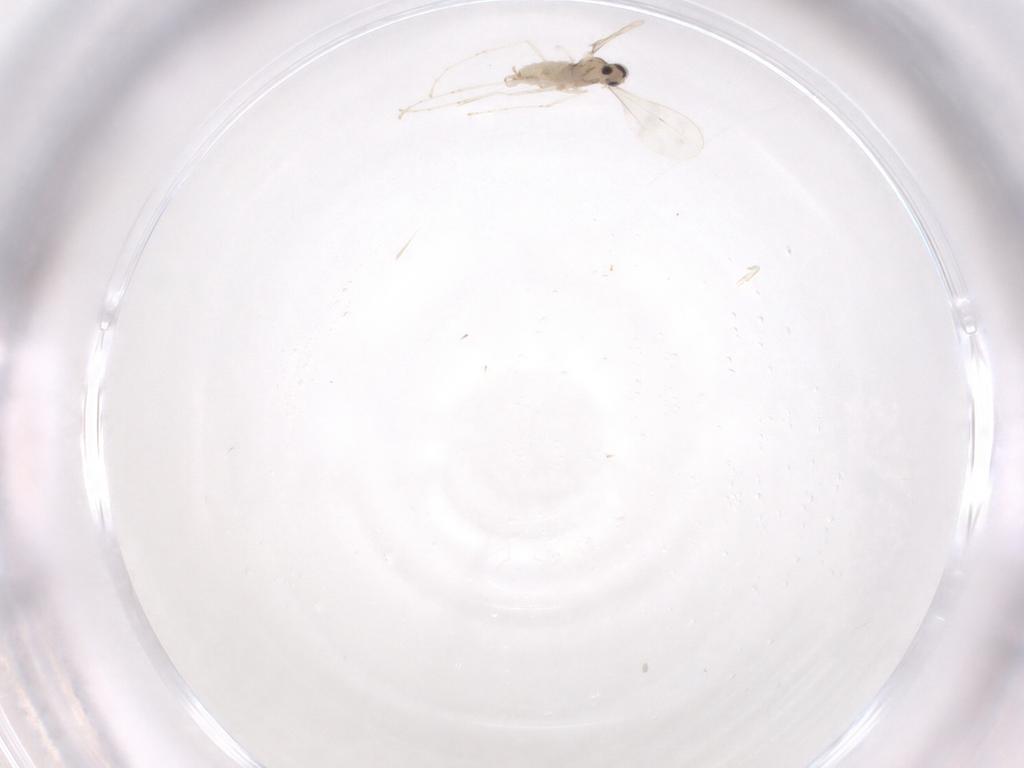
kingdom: Animalia
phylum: Arthropoda
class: Insecta
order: Diptera
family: Cecidomyiidae
